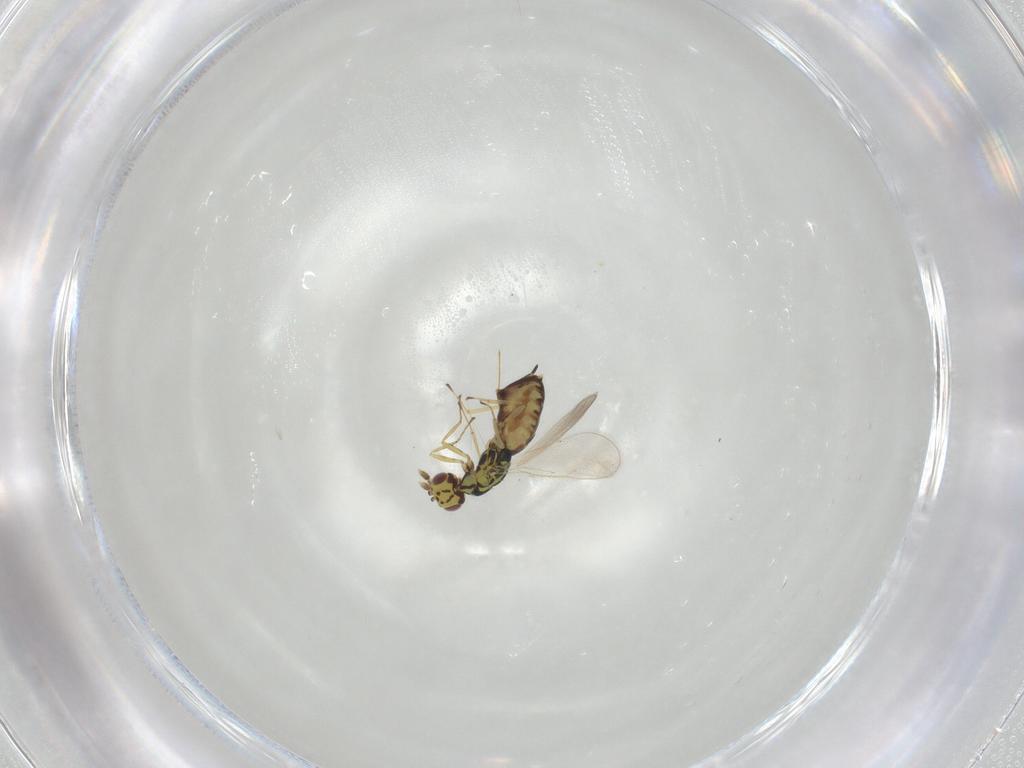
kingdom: Animalia
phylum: Arthropoda
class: Insecta
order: Hymenoptera
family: Eulophidae
